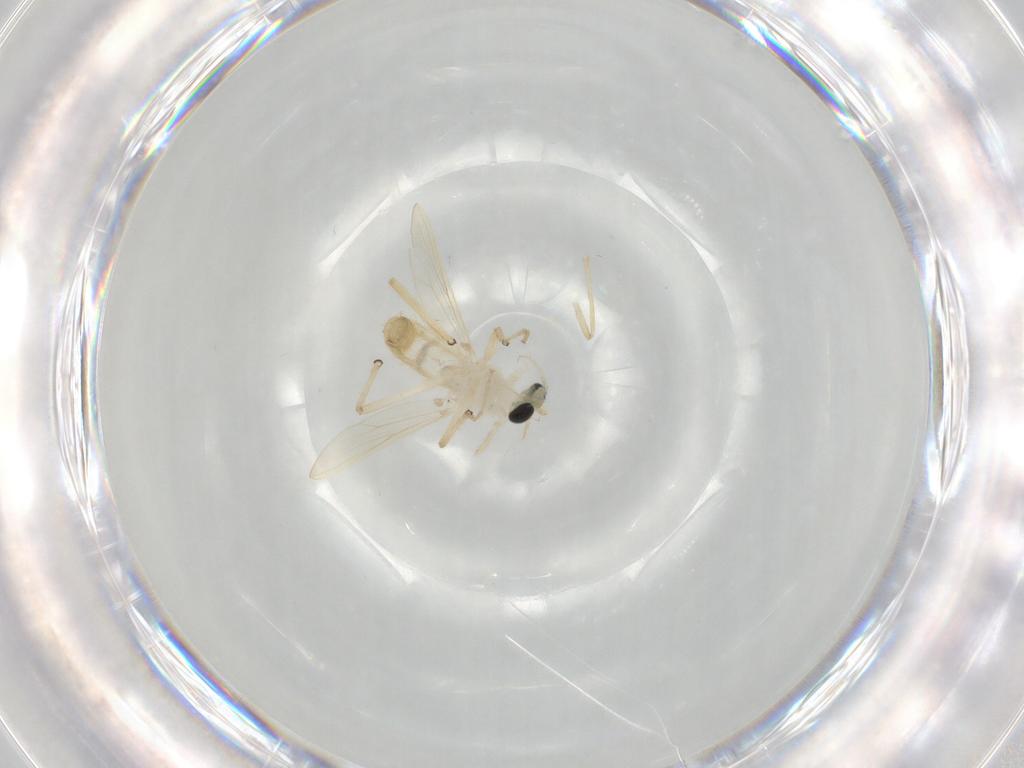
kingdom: Animalia
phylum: Arthropoda
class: Insecta
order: Diptera
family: Chironomidae
